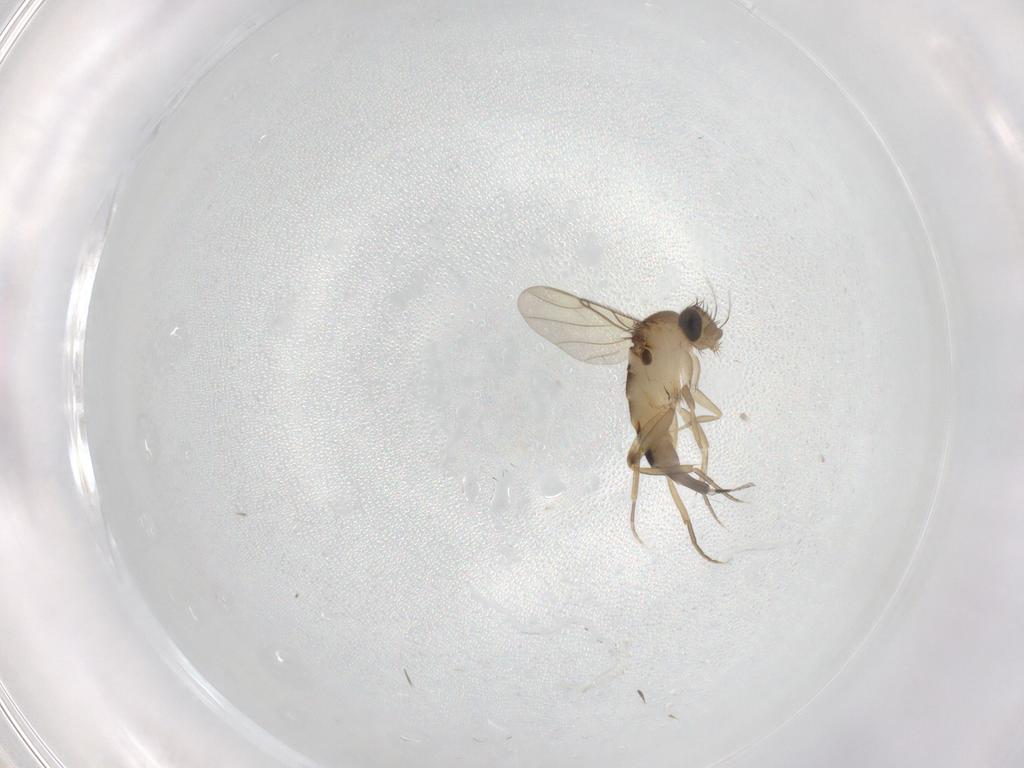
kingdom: Animalia
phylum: Arthropoda
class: Insecta
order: Diptera
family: Phoridae
